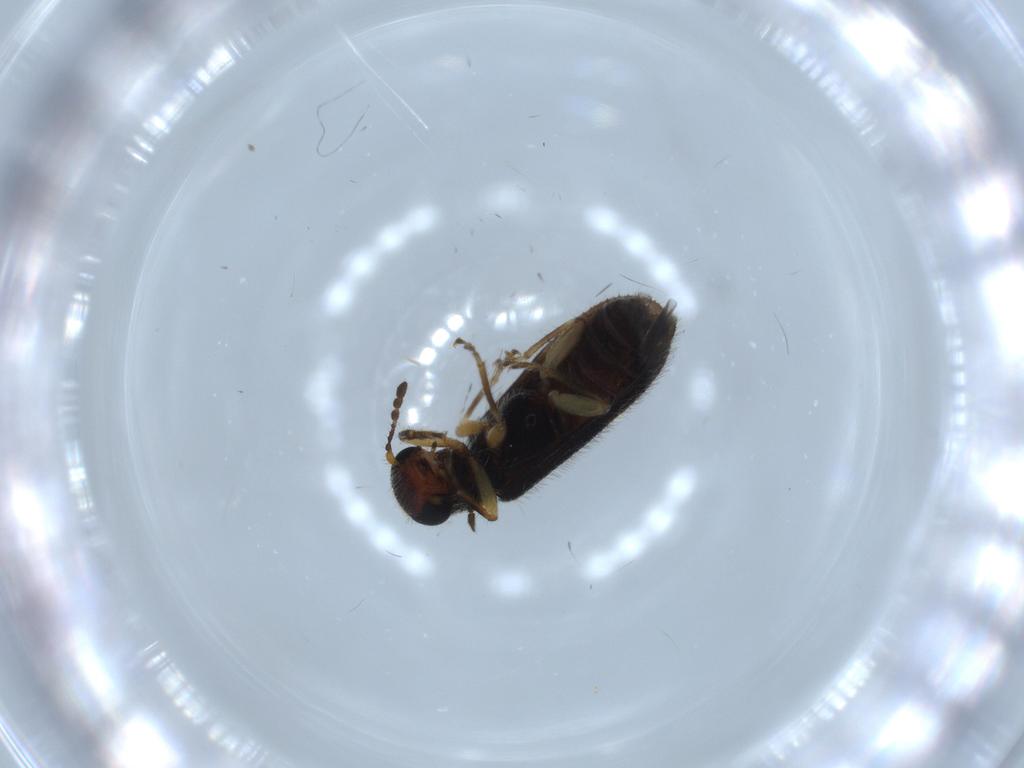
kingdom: Animalia
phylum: Arthropoda
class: Insecta
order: Coleoptera
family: Cleridae
